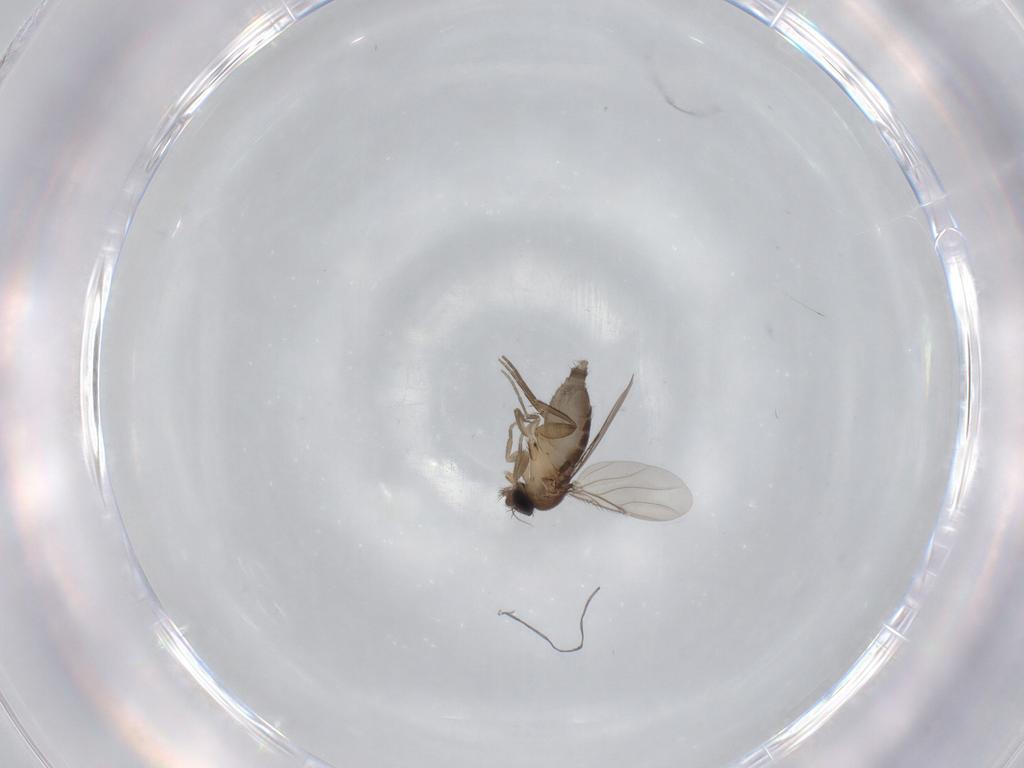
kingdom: Animalia
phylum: Arthropoda
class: Insecta
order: Diptera
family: Phoridae
